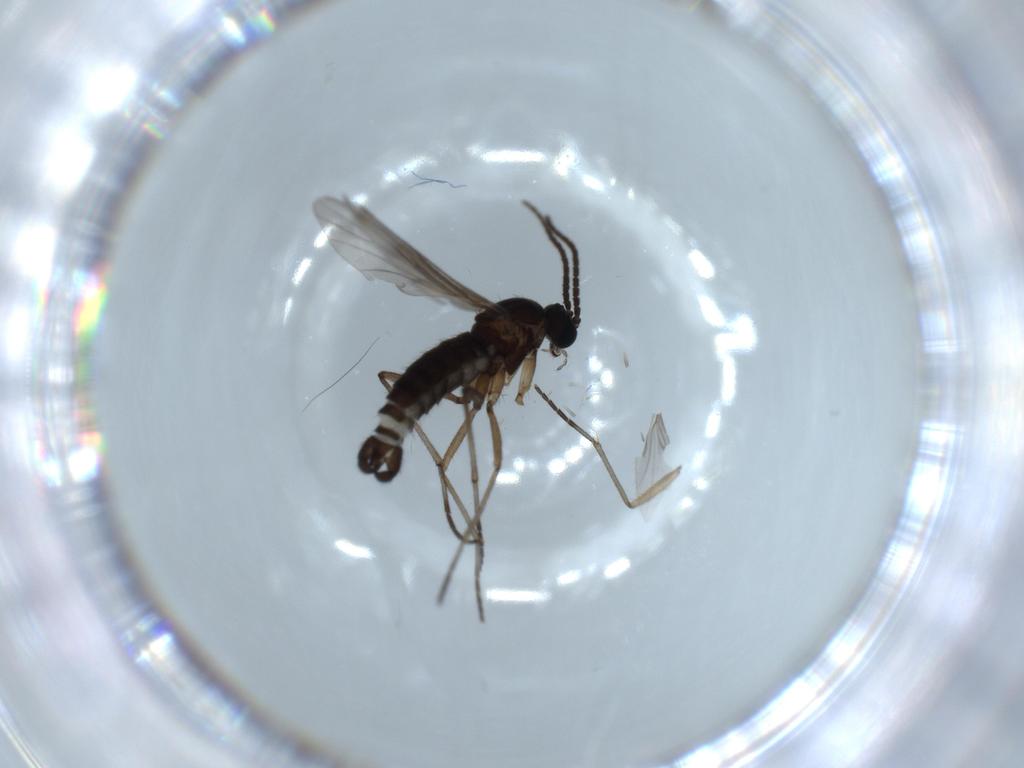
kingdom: Animalia
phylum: Arthropoda
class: Insecta
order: Diptera
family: Sciaridae
